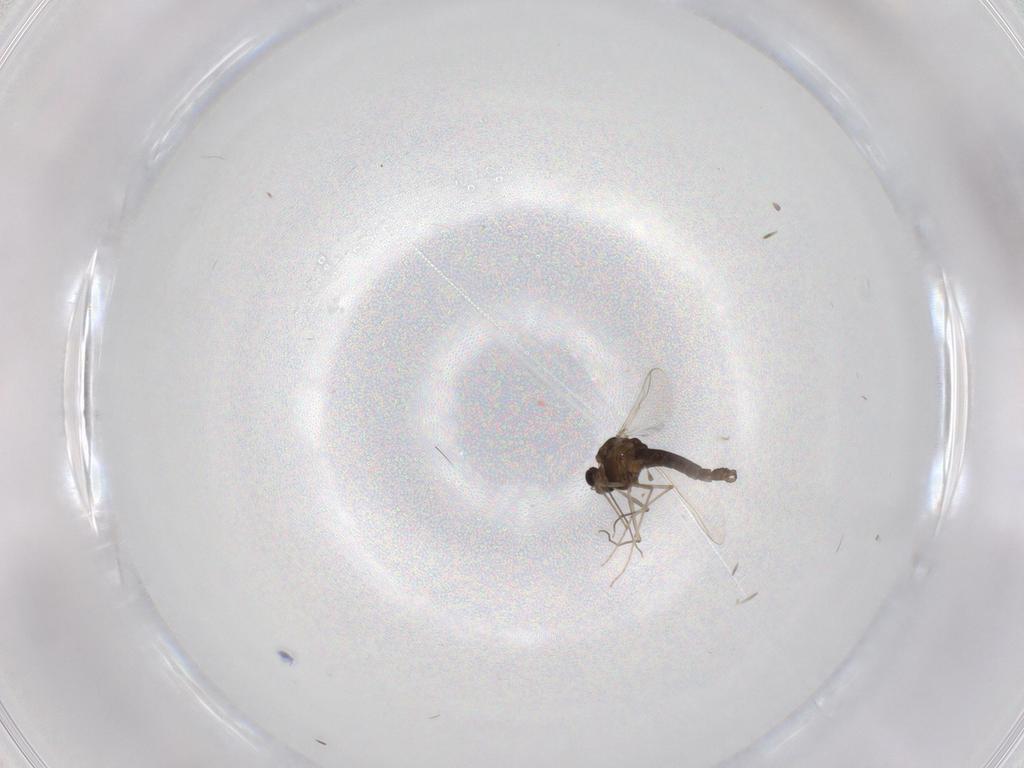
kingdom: Animalia
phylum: Arthropoda
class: Insecta
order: Diptera
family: Chironomidae
